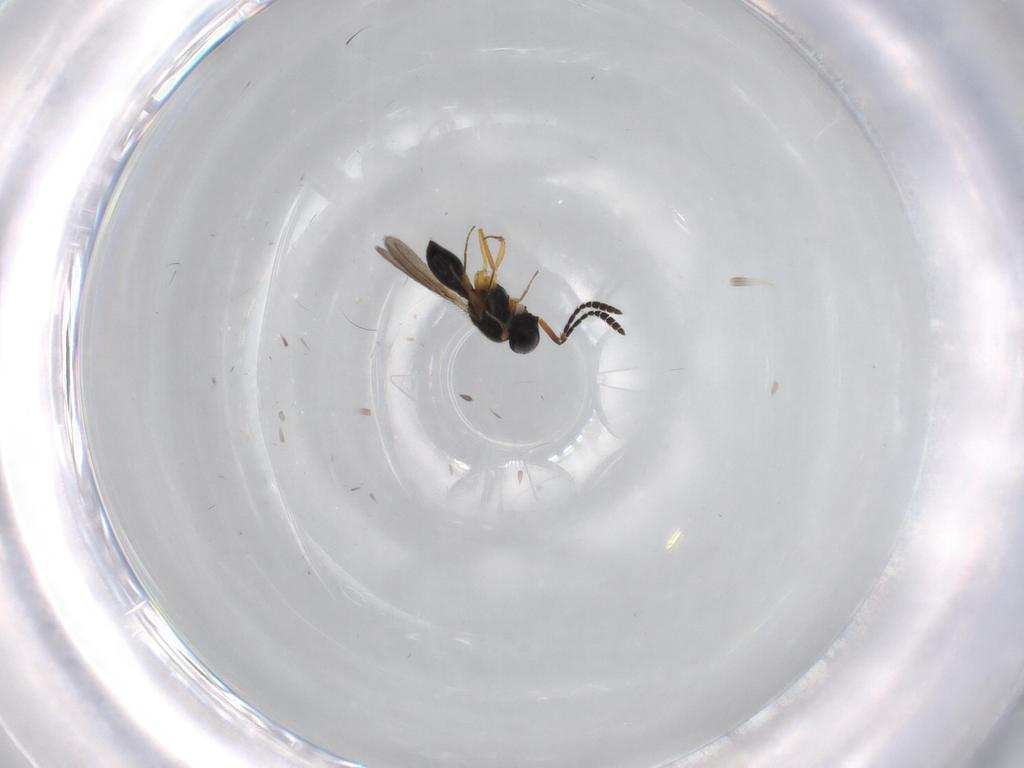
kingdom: Animalia
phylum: Arthropoda
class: Insecta
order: Hymenoptera
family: Scelionidae
